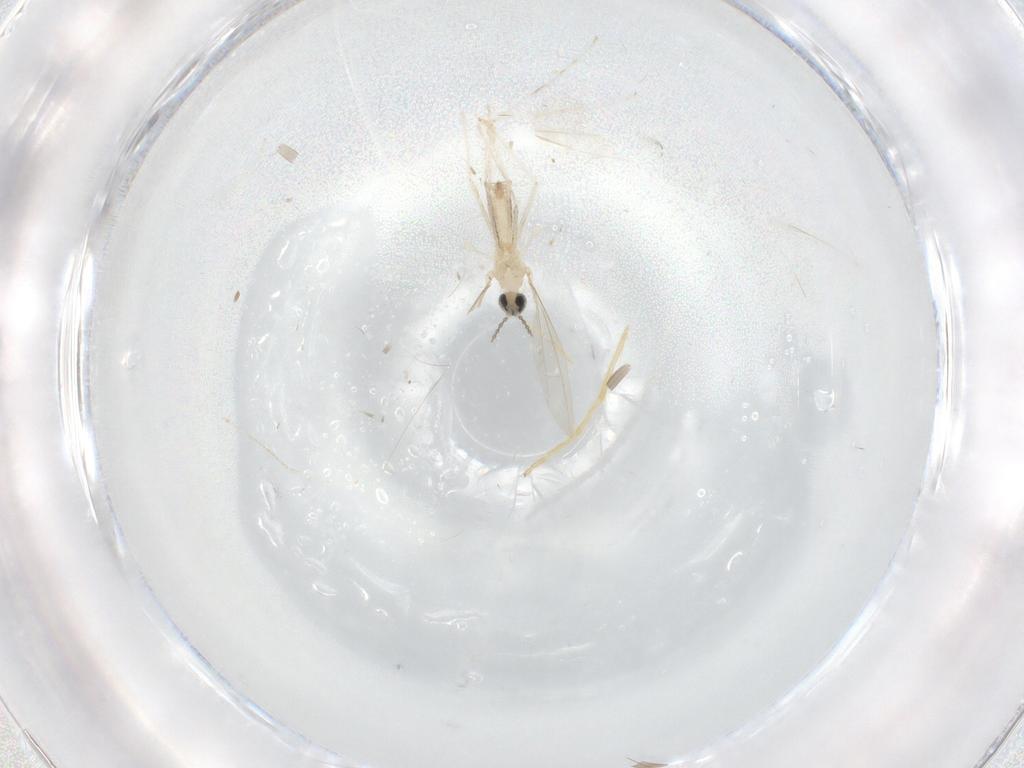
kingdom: Animalia
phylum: Arthropoda
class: Insecta
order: Diptera
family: Chironomidae
